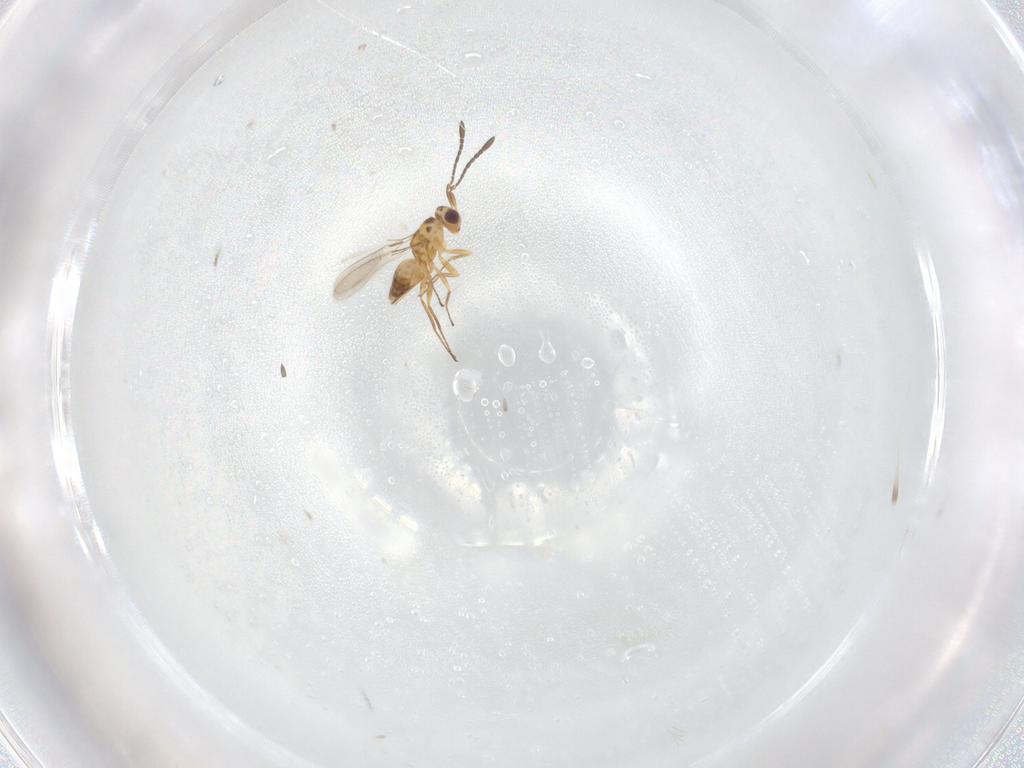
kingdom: Animalia
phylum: Arthropoda
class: Insecta
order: Hymenoptera
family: Mymaridae
